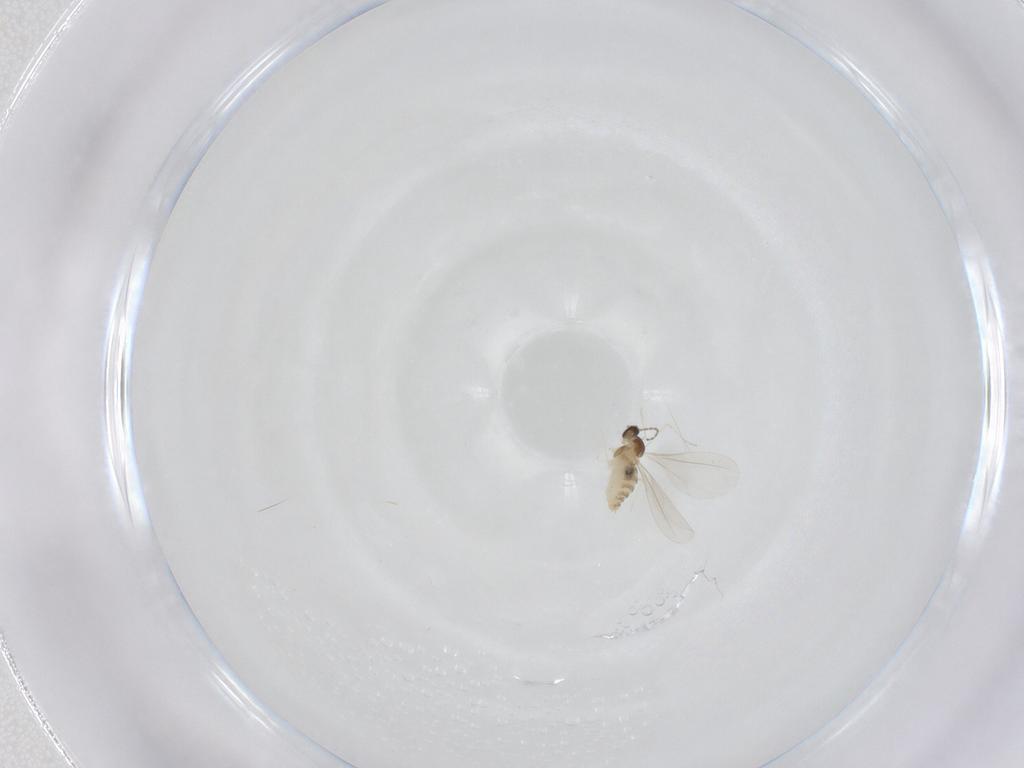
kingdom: Animalia
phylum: Arthropoda
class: Insecta
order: Diptera
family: Cecidomyiidae
